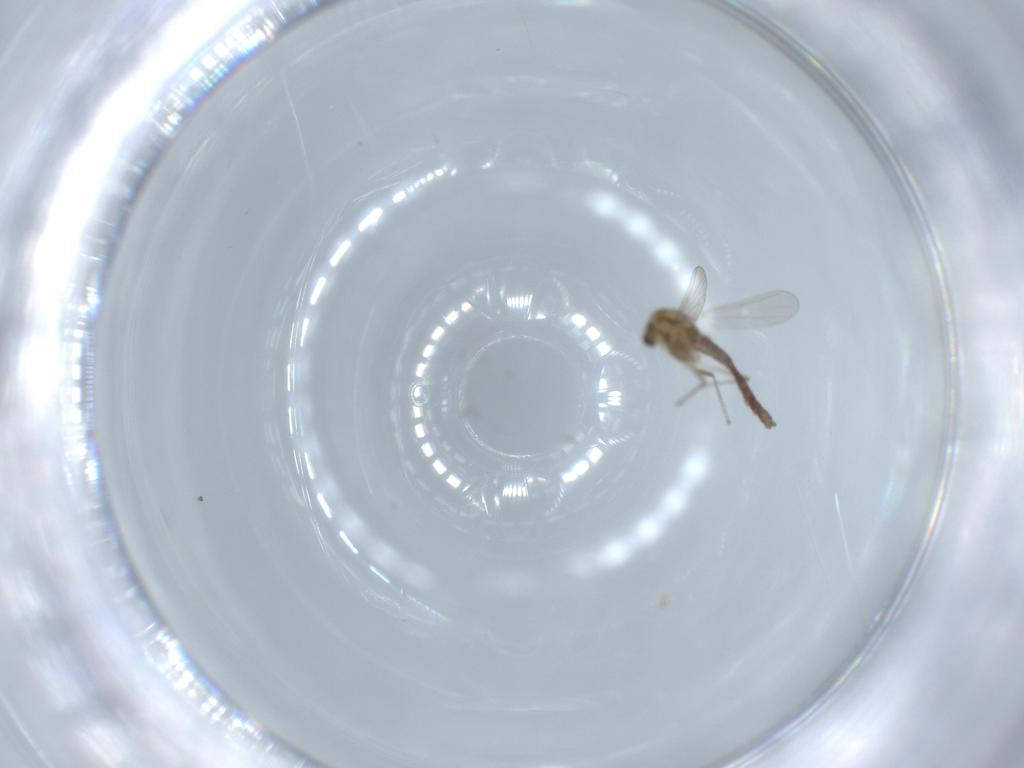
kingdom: Animalia
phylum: Arthropoda
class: Insecta
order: Diptera
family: Chironomidae
